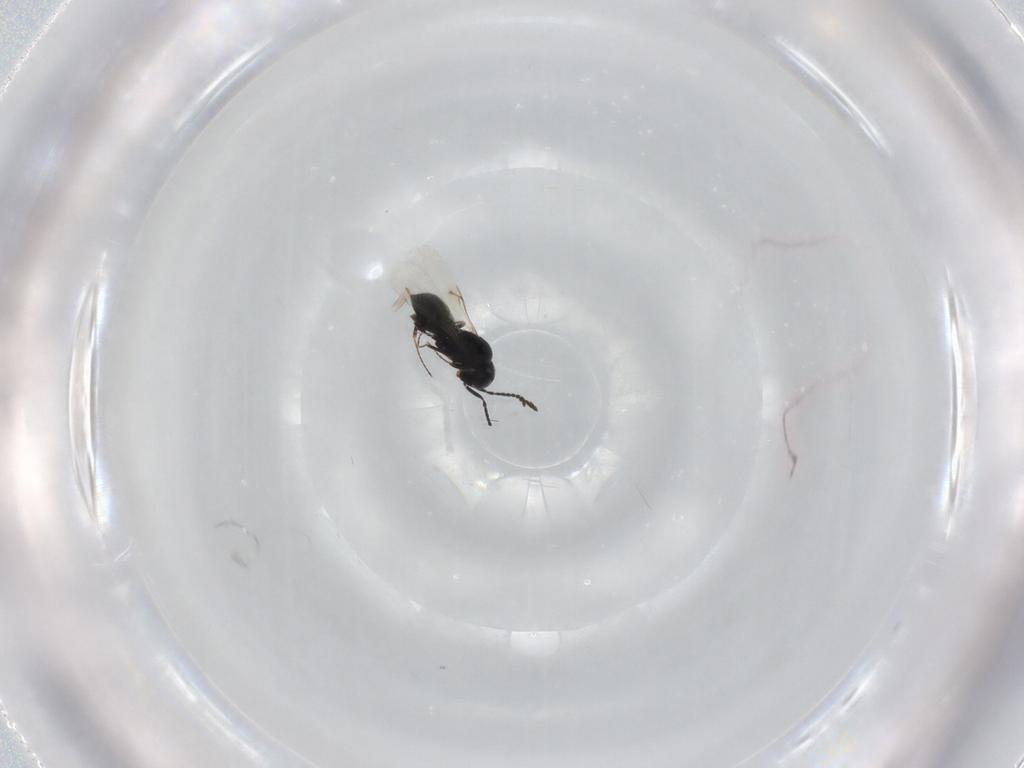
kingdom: Animalia
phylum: Arthropoda
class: Insecta
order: Hymenoptera
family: Scelionidae
